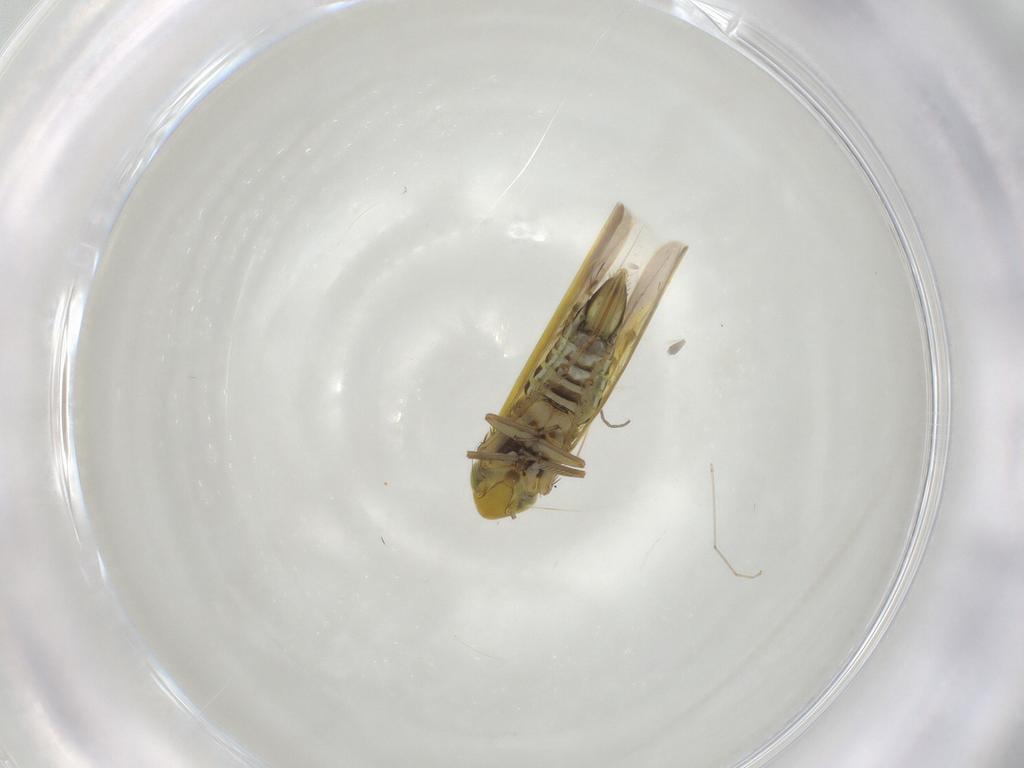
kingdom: Animalia
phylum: Arthropoda
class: Insecta
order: Hemiptera
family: Cicadellidae
